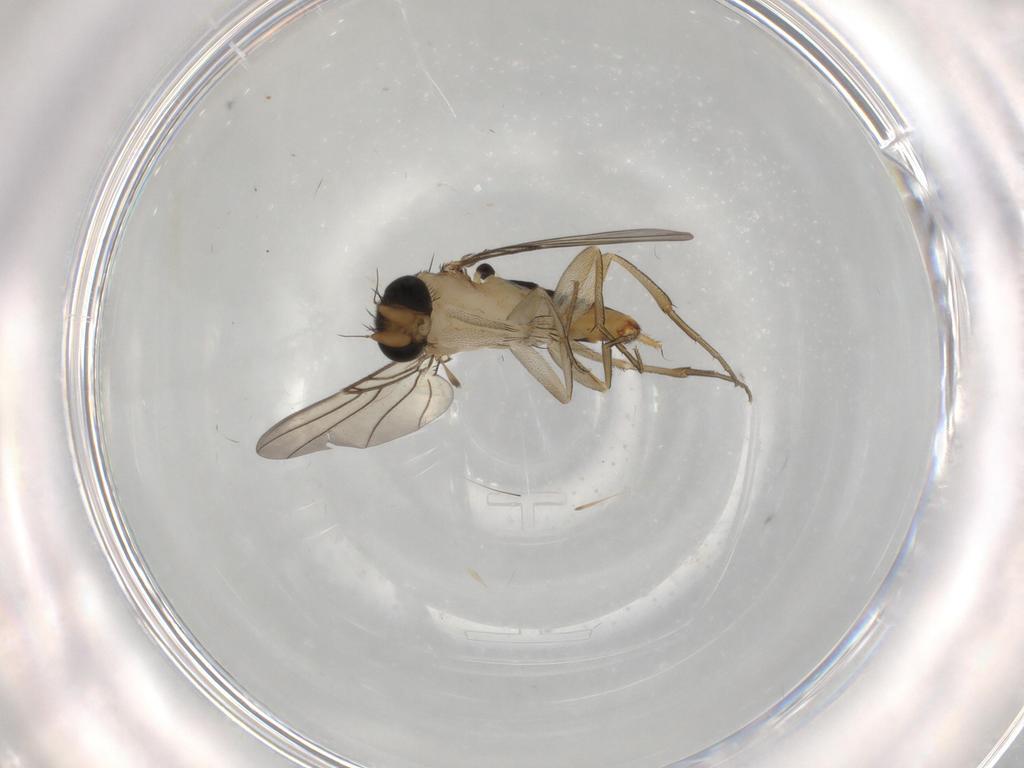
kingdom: Animalia
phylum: Arthropoda
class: Insecta
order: Diptera
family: Phoridae
